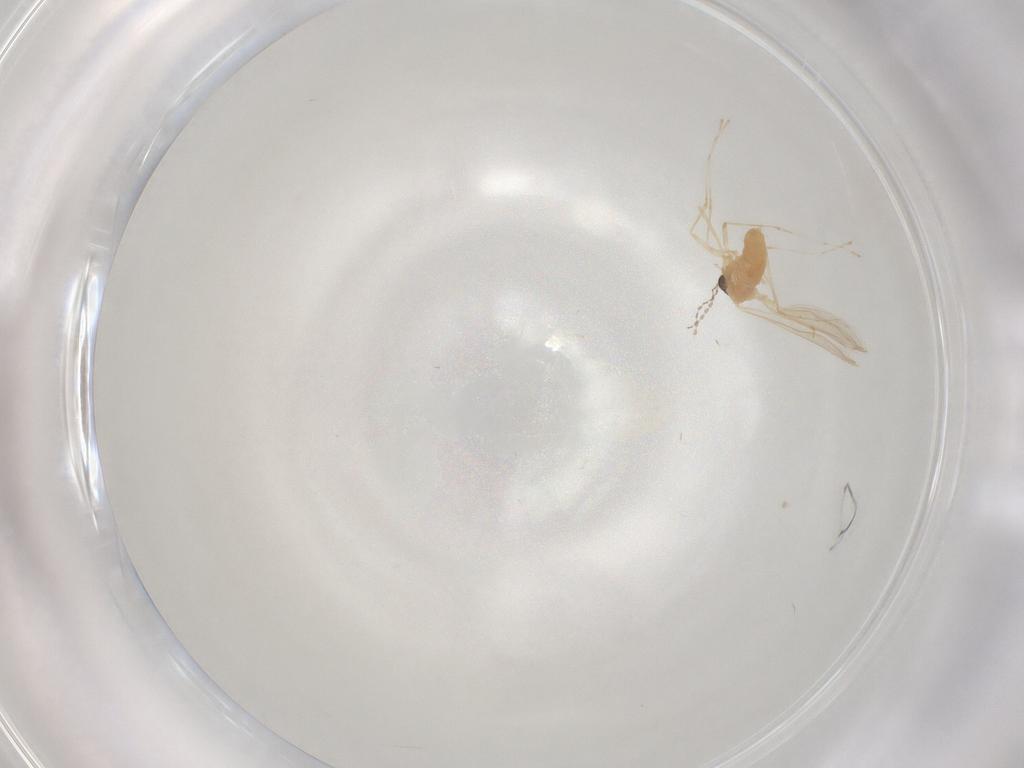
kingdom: Animalia
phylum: Arthropoda
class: Insecta
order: Diptera
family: Cecidomyiidae
